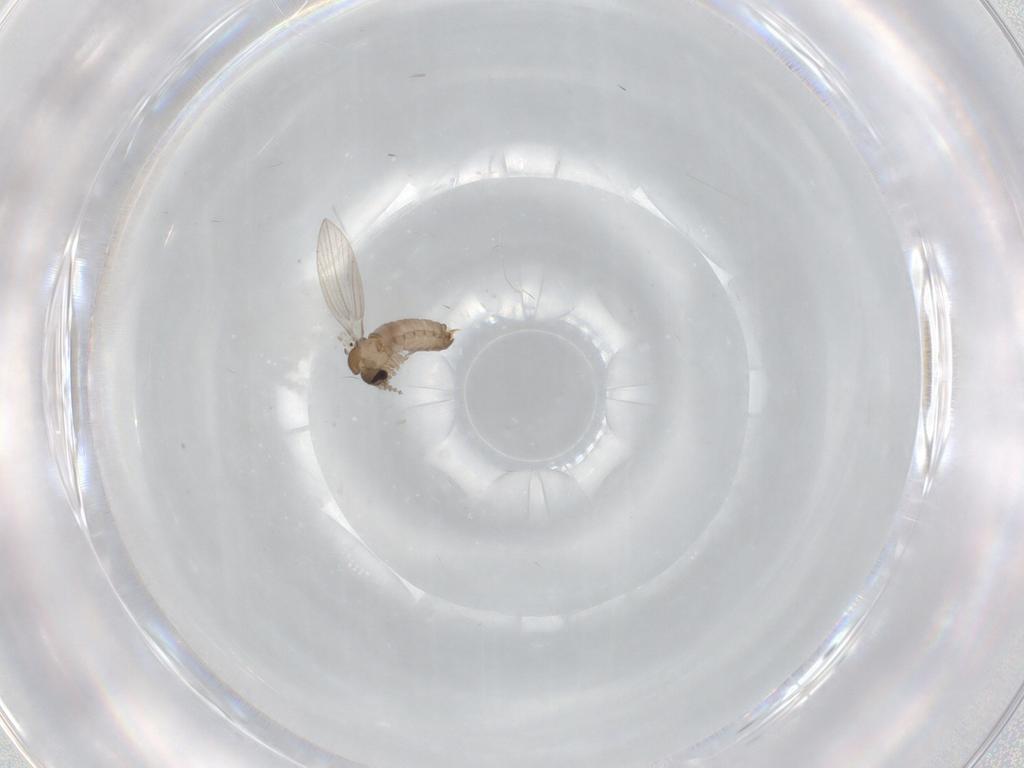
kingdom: Animalia
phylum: Arthropoda
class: Insecta
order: Diptera
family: Psychodidae
